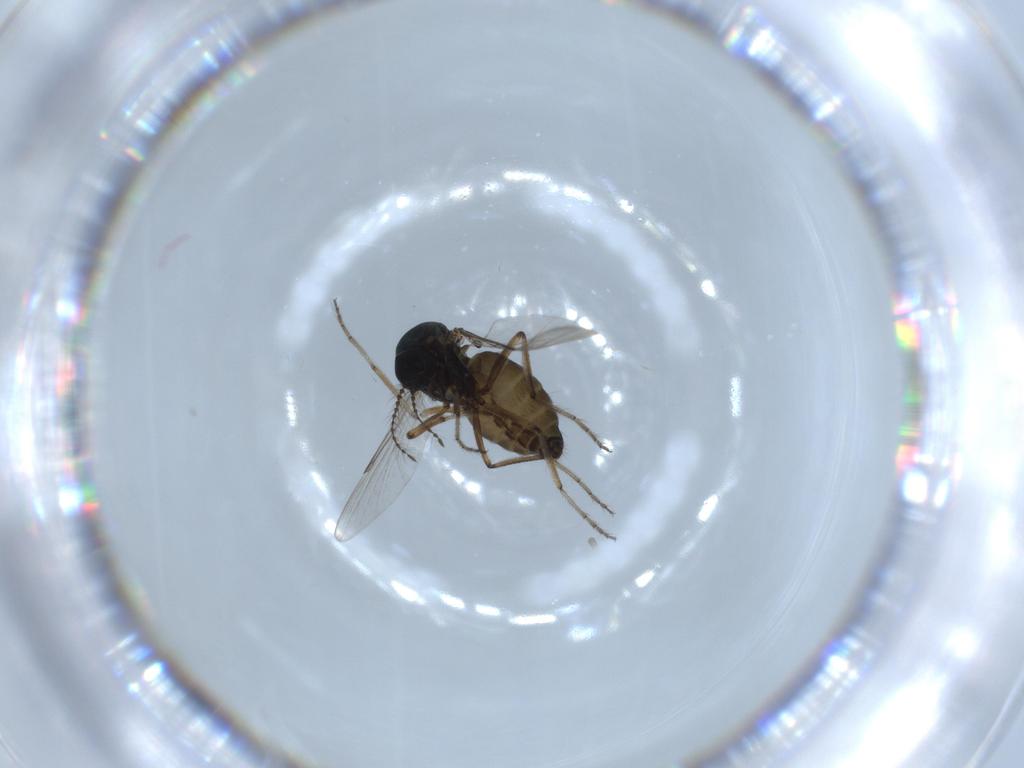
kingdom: Animalia
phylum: Arthropoda
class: Insecta
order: Diptera
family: Ceratopogonidae
